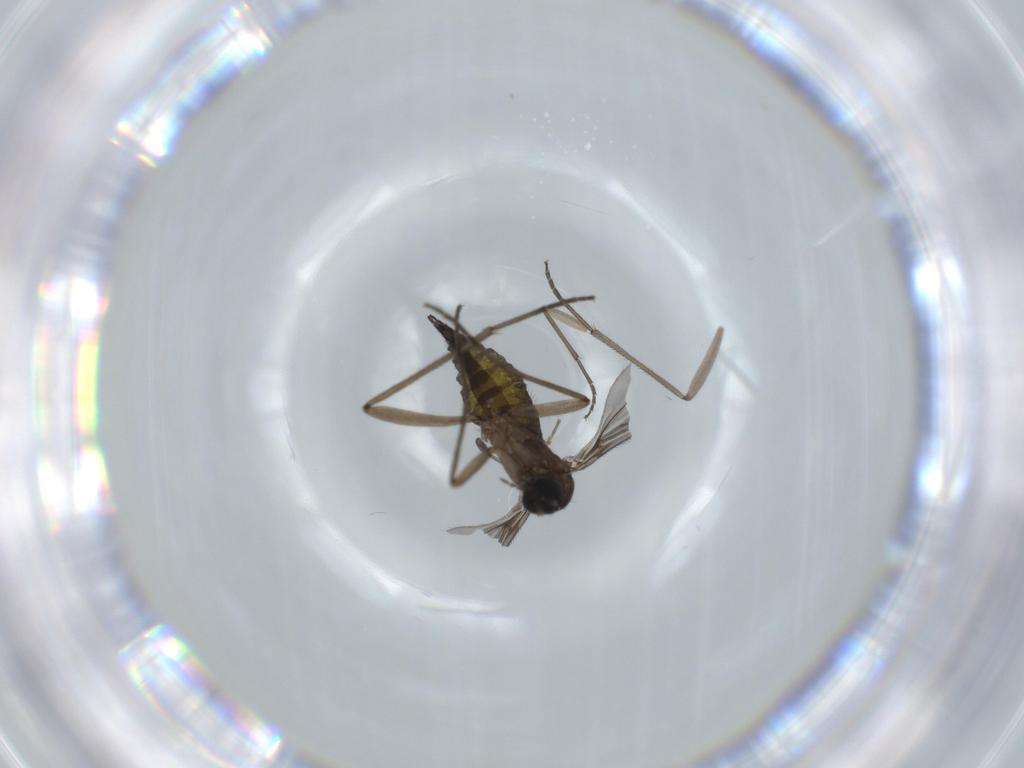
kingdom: Animalia
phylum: Arthropoda
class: Insecta
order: Diptera
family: Sciaridae
